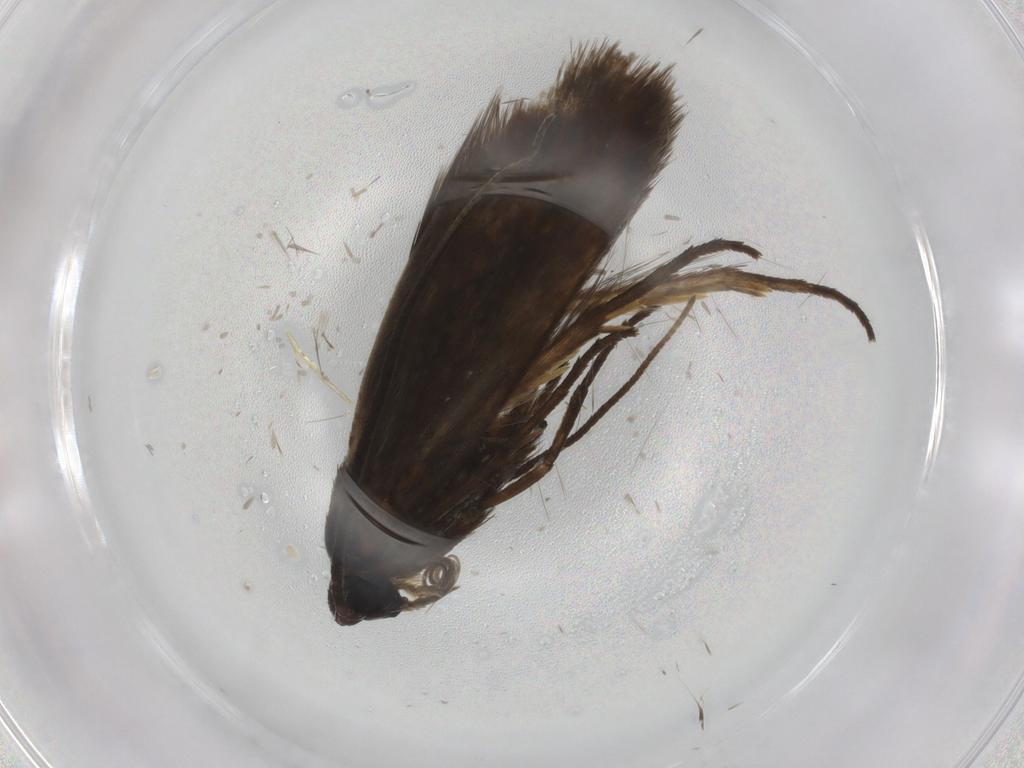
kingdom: Animalia
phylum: Arthropoda
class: Insecta
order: Lepidoptera
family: Adelidae
